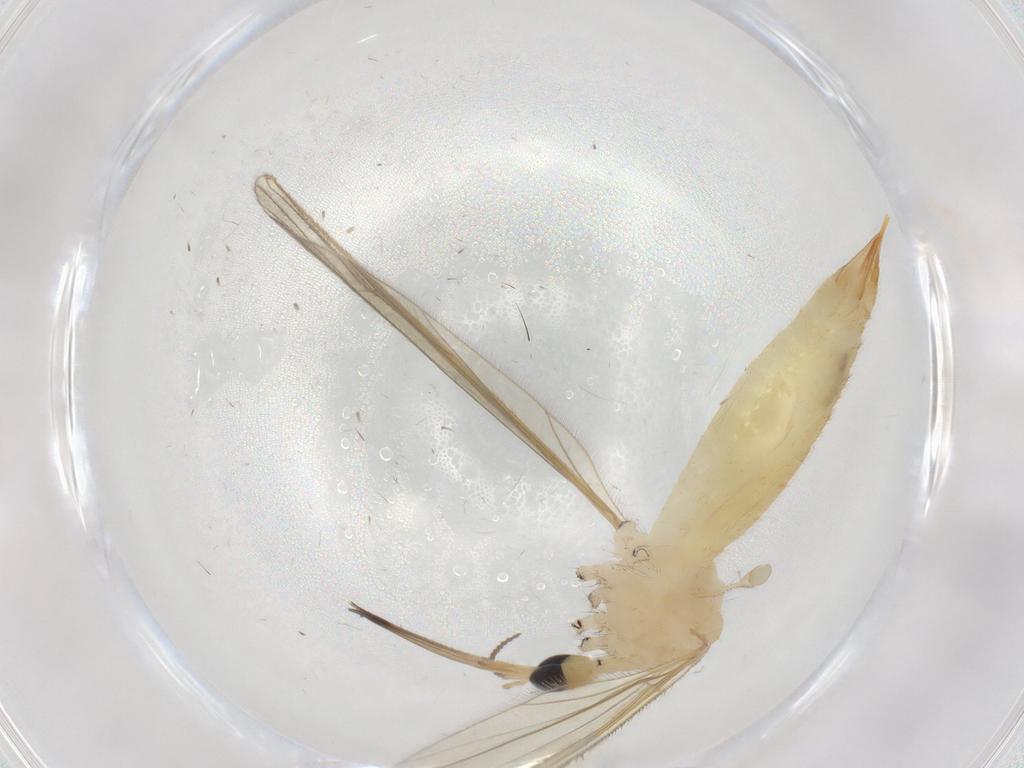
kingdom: Animalia
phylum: Arthropoda
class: Insecta
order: Diptera
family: Limoniidae
